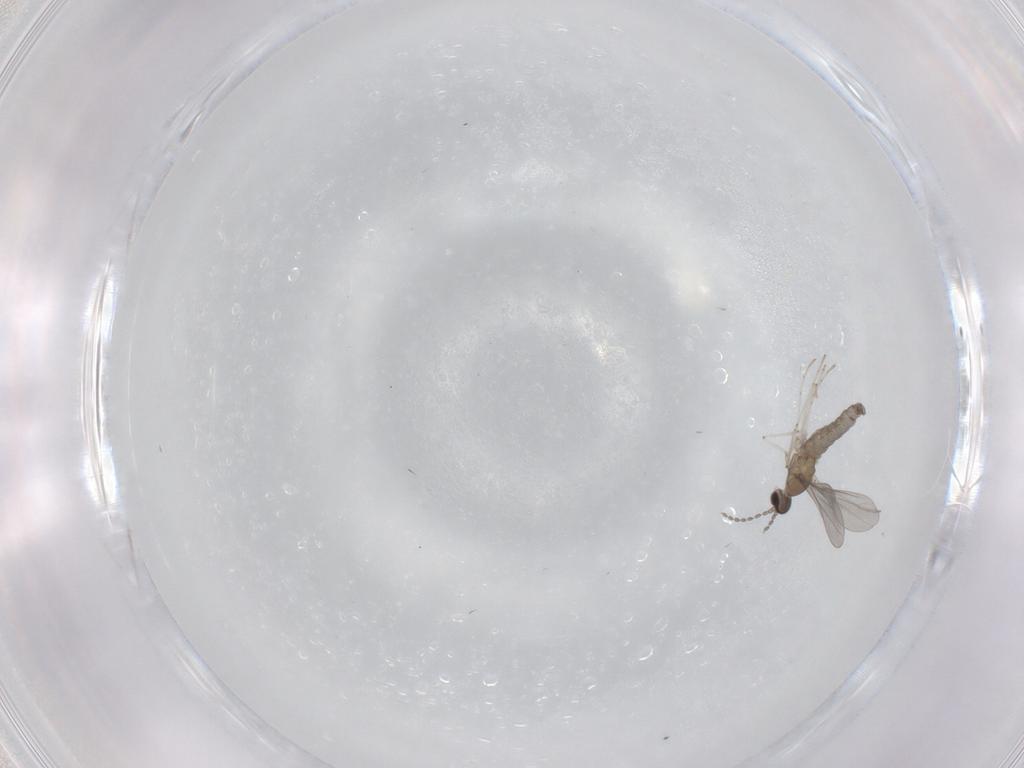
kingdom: Animalia
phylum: Arthropoda
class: Insecta
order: Diptera
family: Cecidomyiidae
